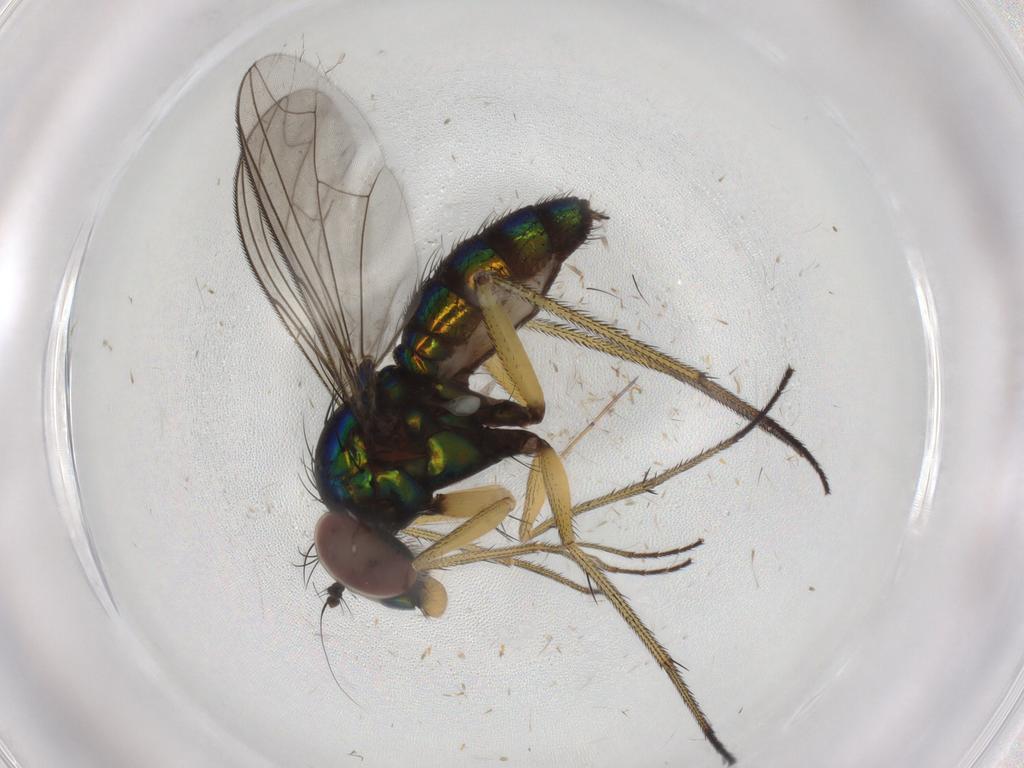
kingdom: Animalia
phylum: Arthropoda
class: Insecta
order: Diptera
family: Dolichopodidae
